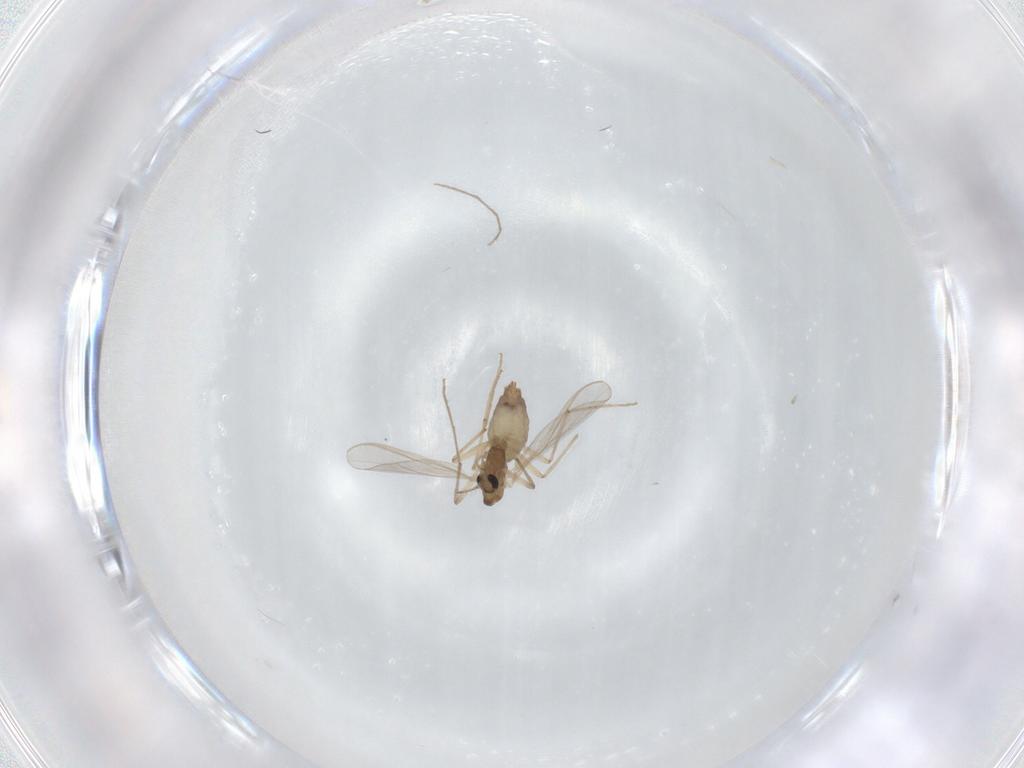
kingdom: Animalia
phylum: Arthropoda
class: Insecta
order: Diptera
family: Chironomidae
